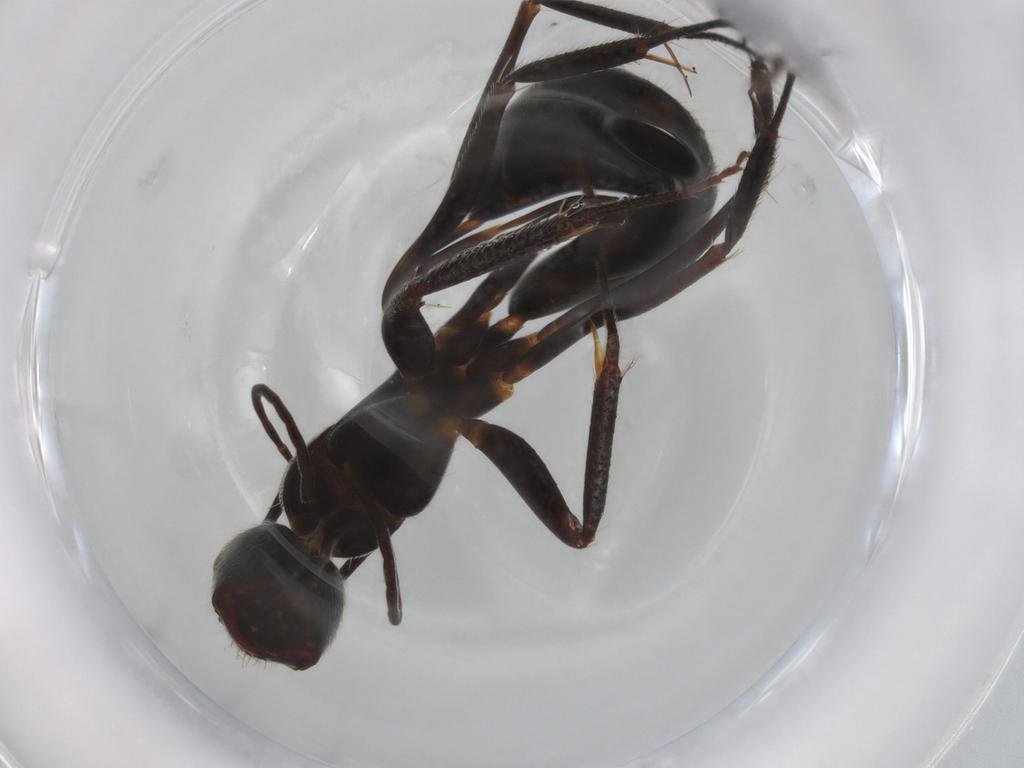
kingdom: Animalia
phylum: Arthropoda
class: Insecta
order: Hymenoptera
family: Formicidae
